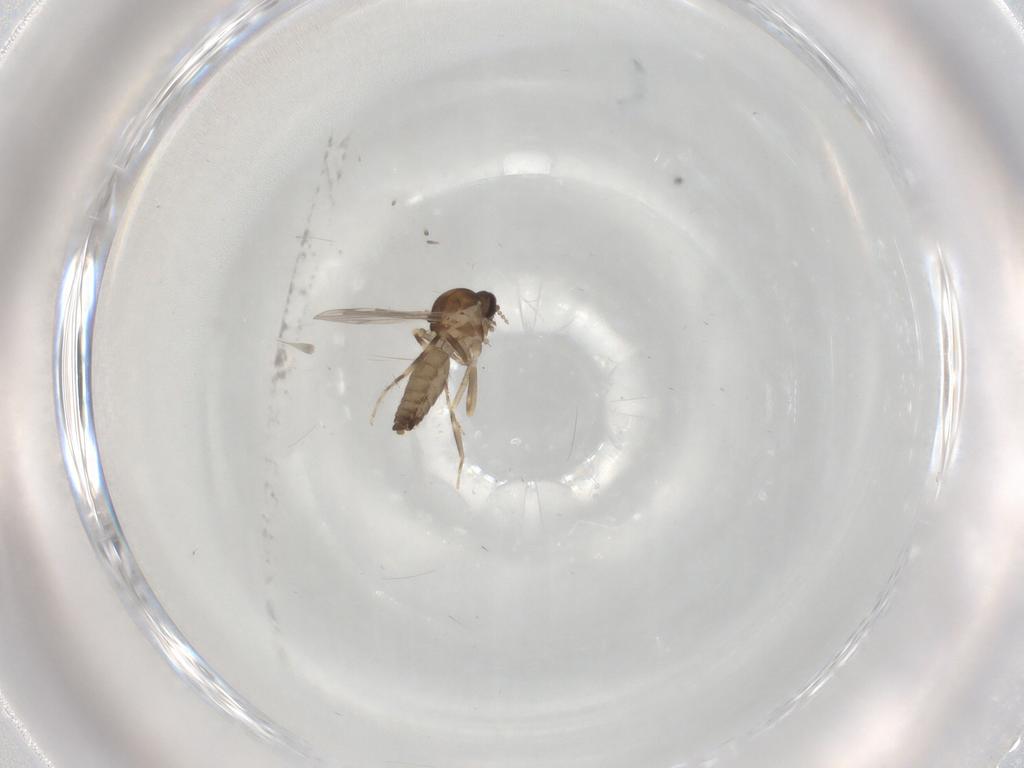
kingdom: Animalia
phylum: Arthropoda
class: Insecta
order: Diptera
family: Ceratopogonidae
